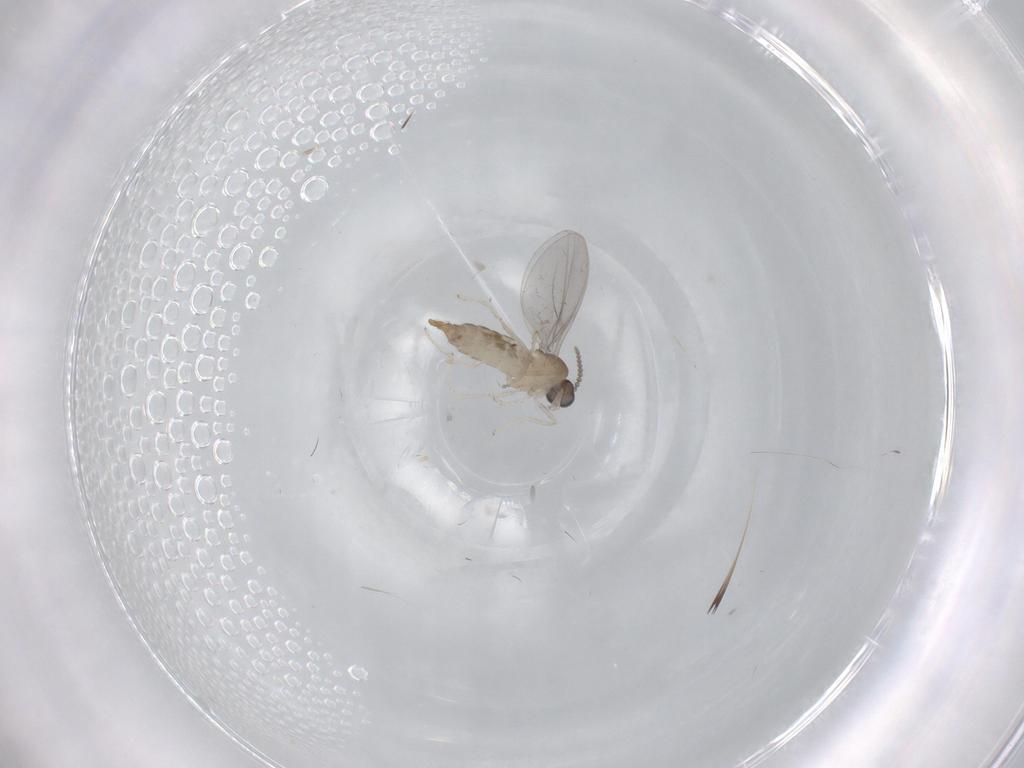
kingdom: Animalia
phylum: Arthropoda
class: Insecta
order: Diptera
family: Cecidomyiidae
